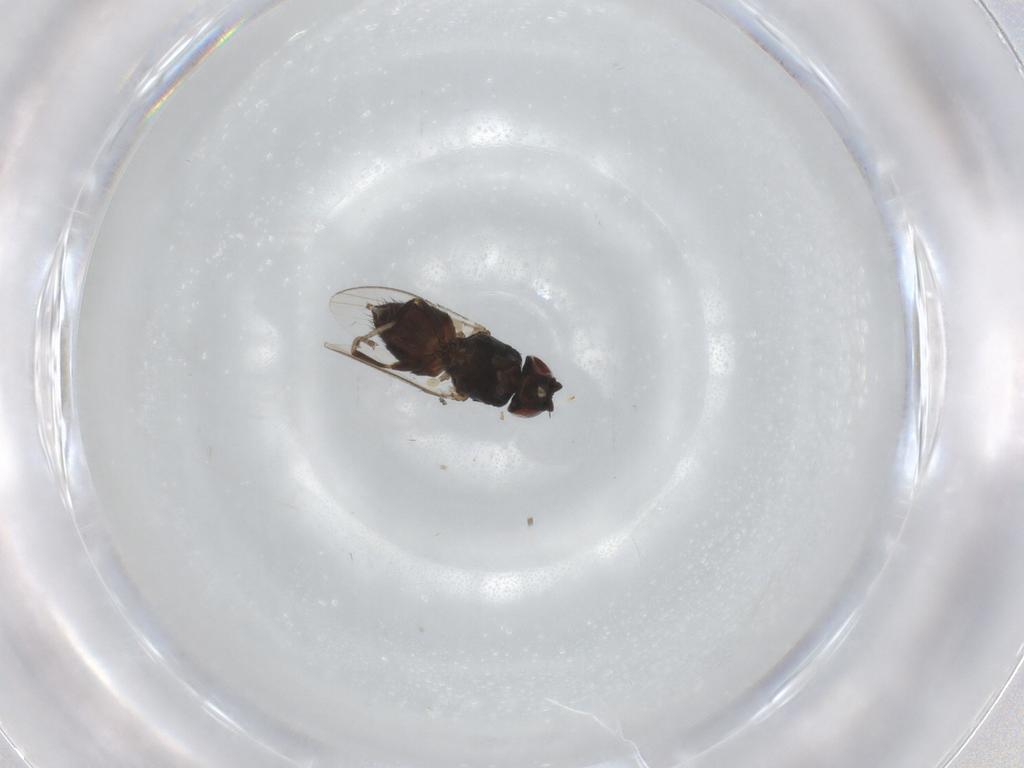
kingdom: Animalia
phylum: Arthropoda
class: Insecta
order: Diptera
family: Milichiidae
